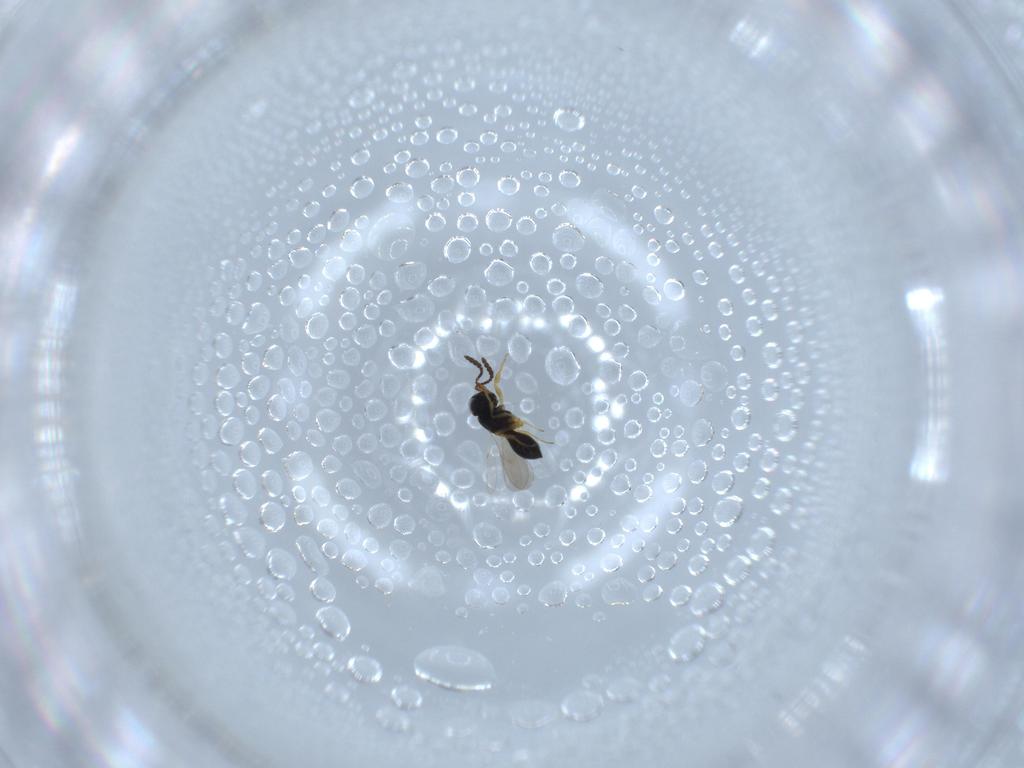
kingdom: Animalia
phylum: Arthropoda
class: Insecta
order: Hymenoptera
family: Scelionidae
